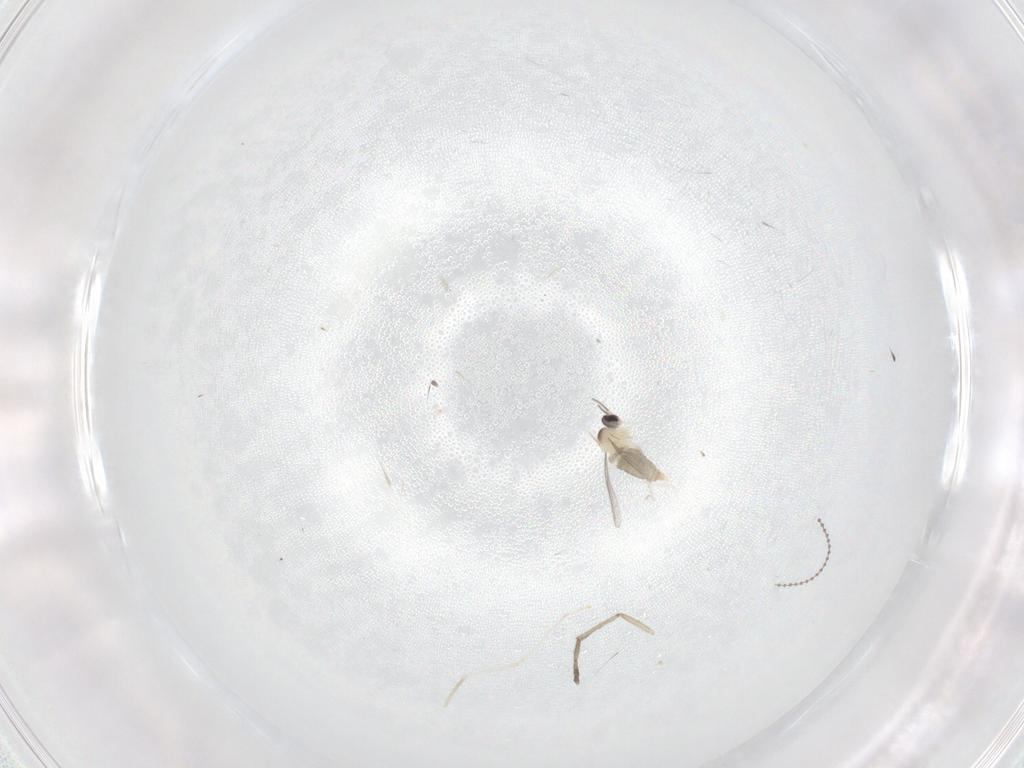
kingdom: Animalia
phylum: Arthropoda
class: Insecta
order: Diptera
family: Cecidomyiidae
